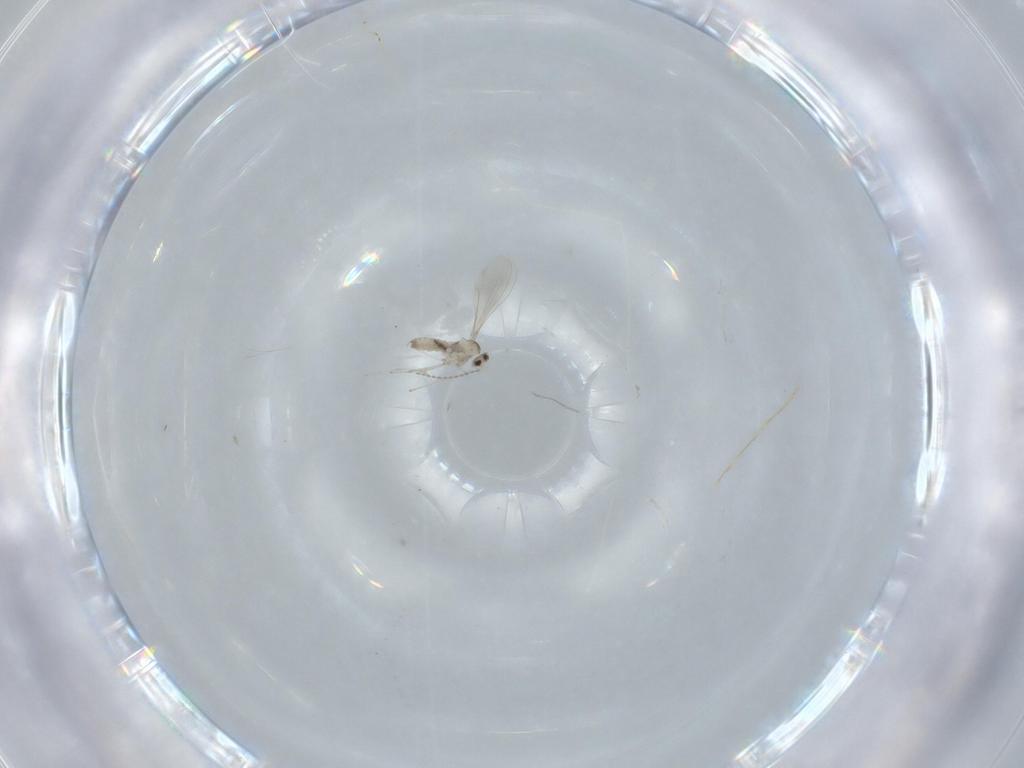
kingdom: Animalia
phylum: Arthropoda
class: Insecta
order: Diptera
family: Cecidomyiidae
